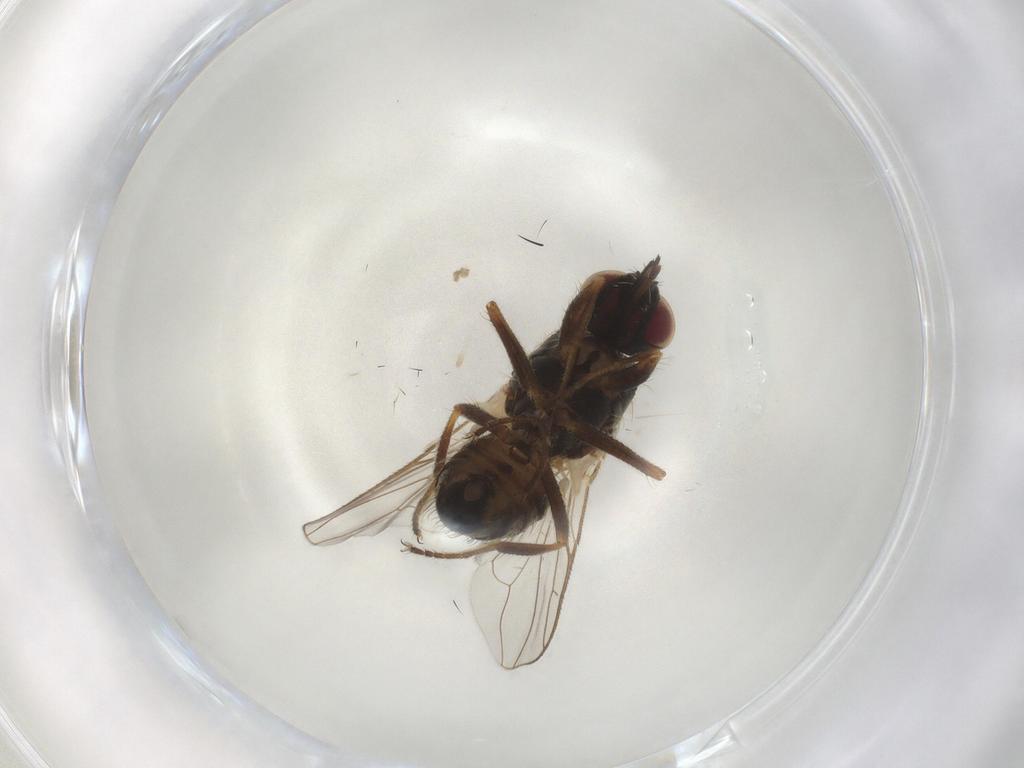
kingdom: Animalia
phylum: Arthropoda
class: Insecta
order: Diptera
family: Muscidae
